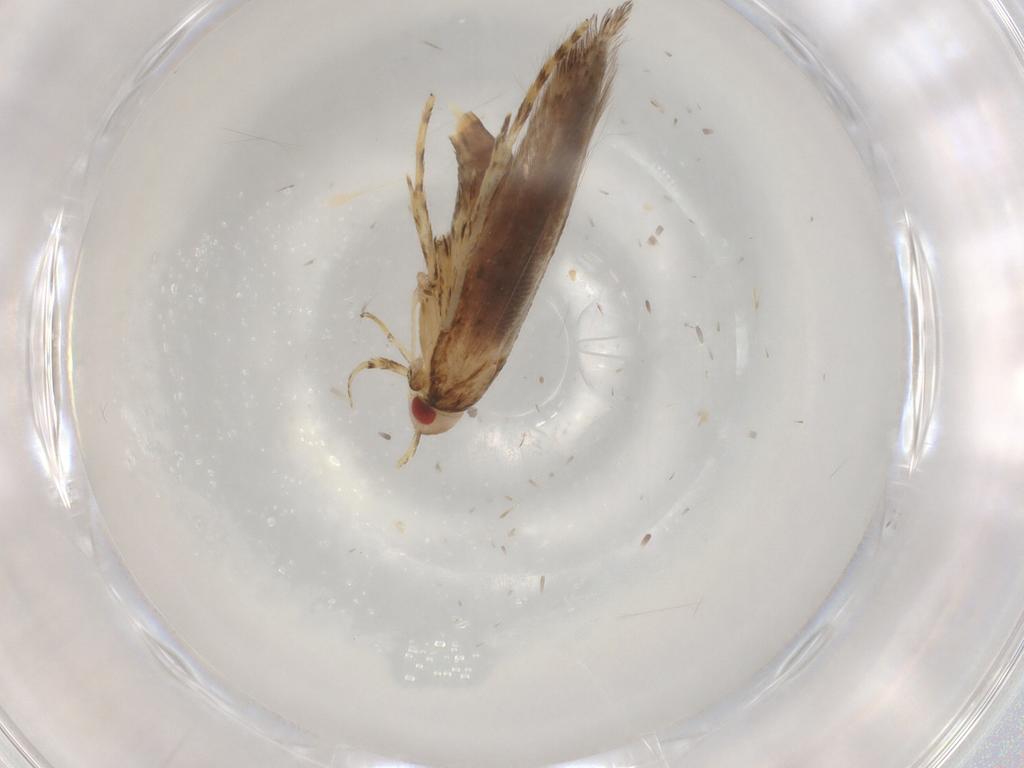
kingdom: Animalia
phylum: Arthropoda
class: Insecta
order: Lepidoptera
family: Cosmopterigidae
